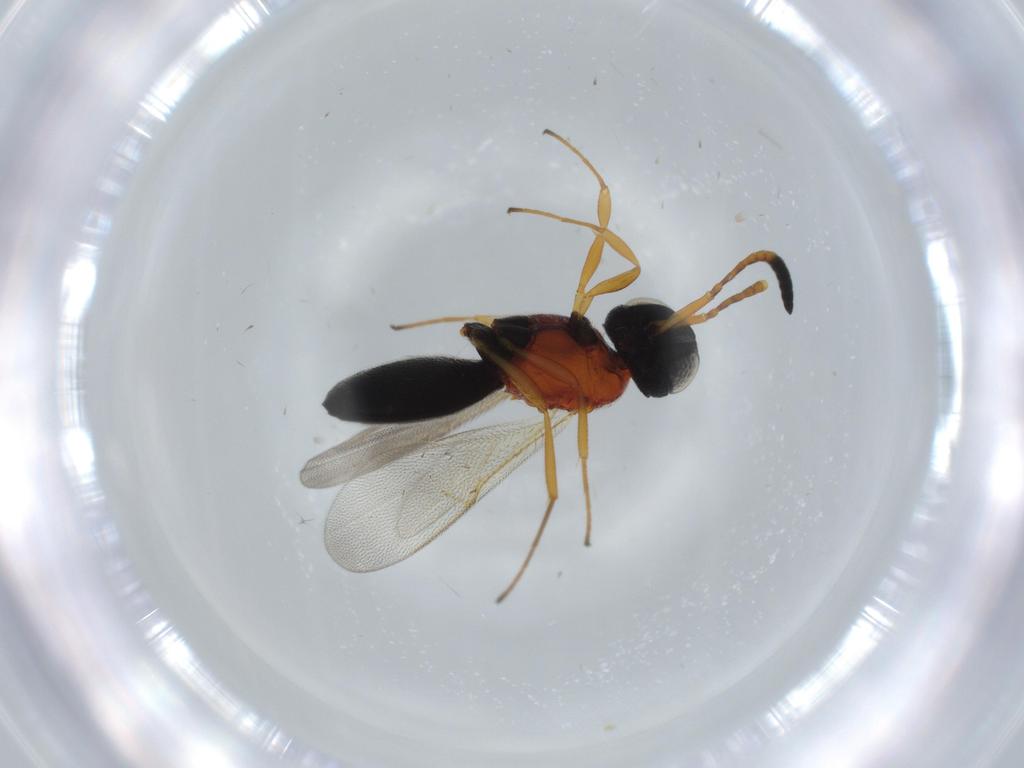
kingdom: Animalia
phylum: Arthropoda
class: Insecta
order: Hymenoptera
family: Scelionidae
